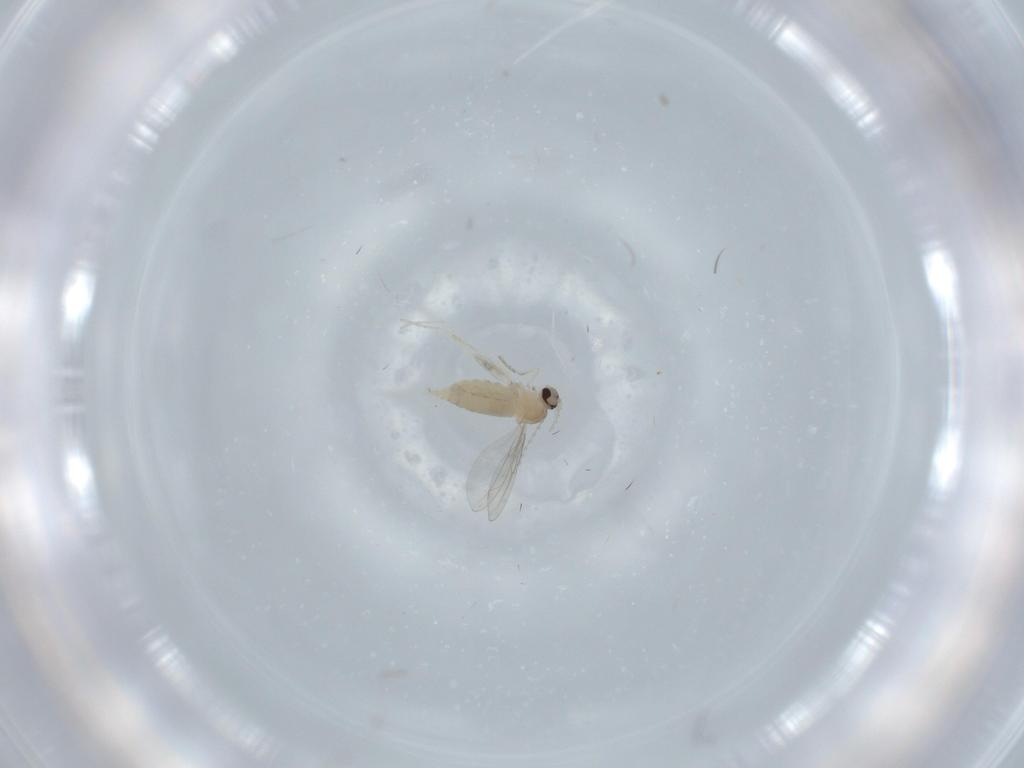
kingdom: Animalia
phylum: Arthropoda
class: Insecta
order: Diptera
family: Cecidomyiidae
